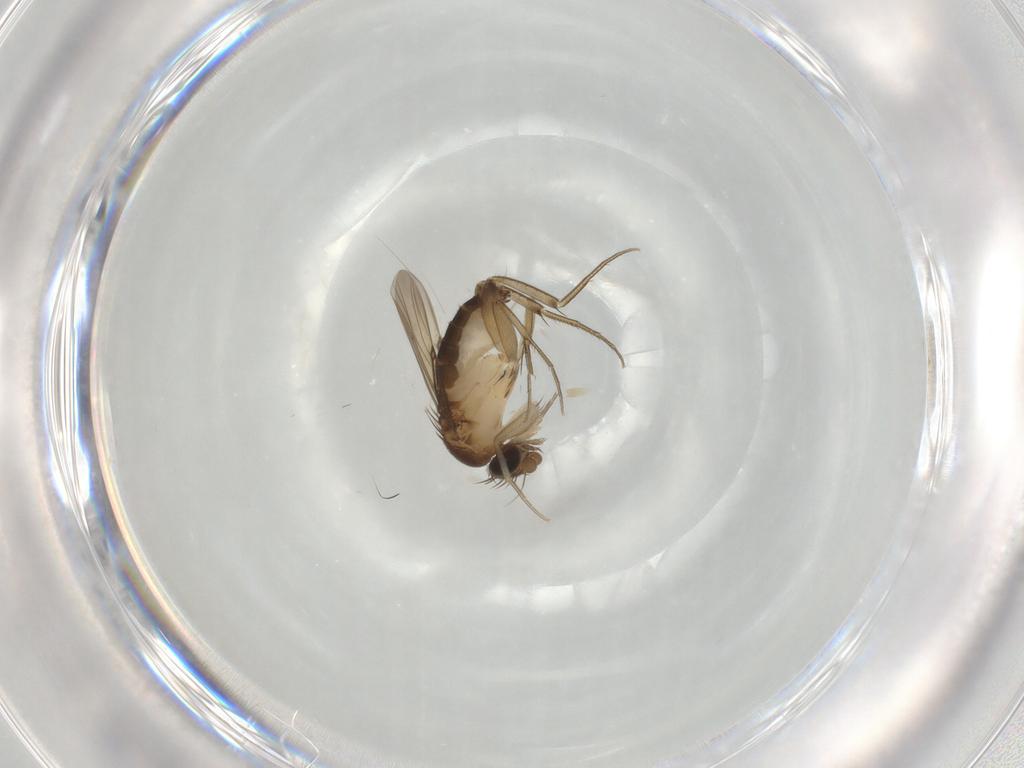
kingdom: Animalia
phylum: Arthropoda
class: Insecta
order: Diptera
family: Phoridae
